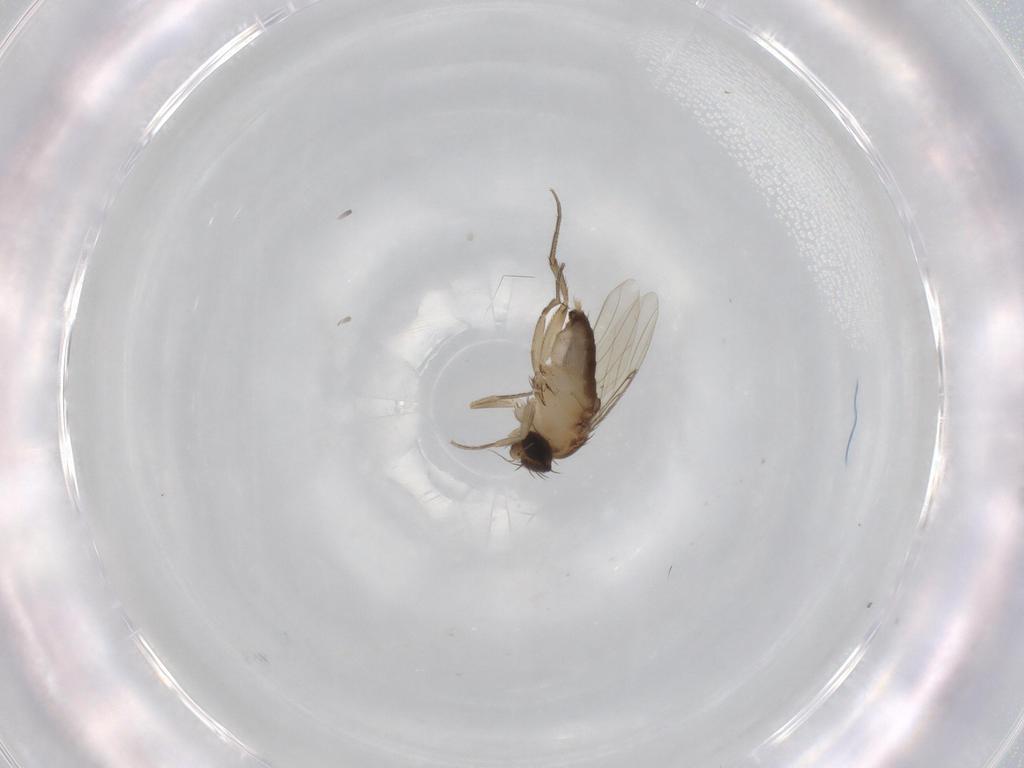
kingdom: Animalia
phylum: Arthropoda
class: Insecta
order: Diptera
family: Phoridae
